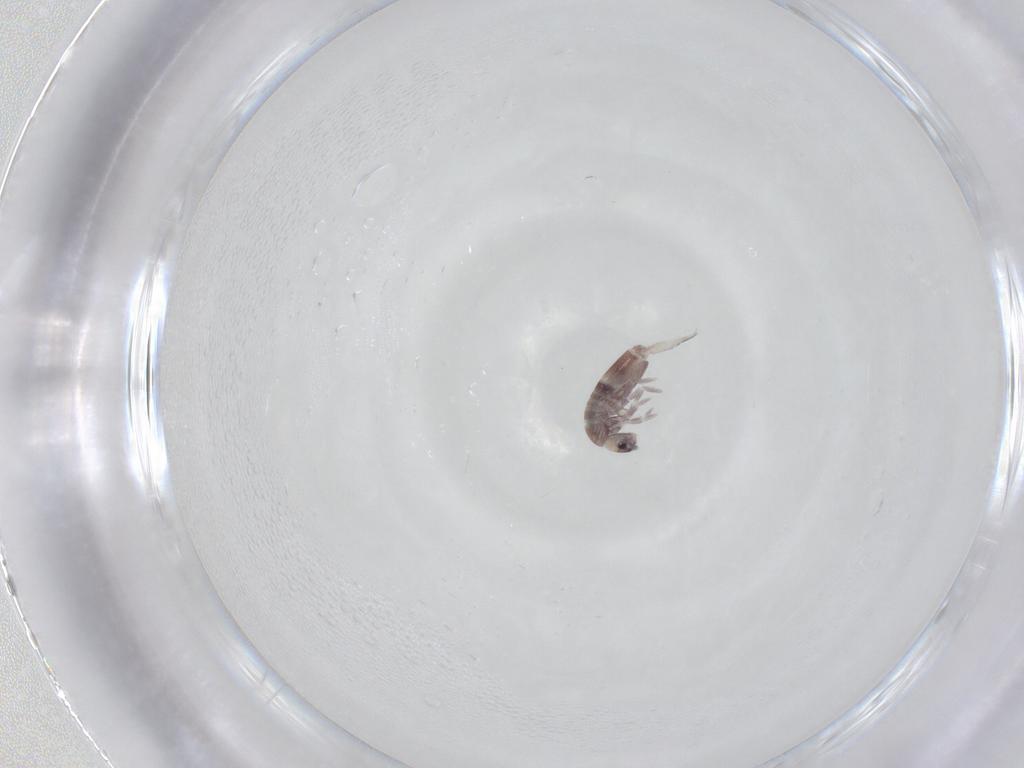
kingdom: Animalia
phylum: Arthropoda
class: Collembola
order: Entomobryomorpha
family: Entomobryidae
